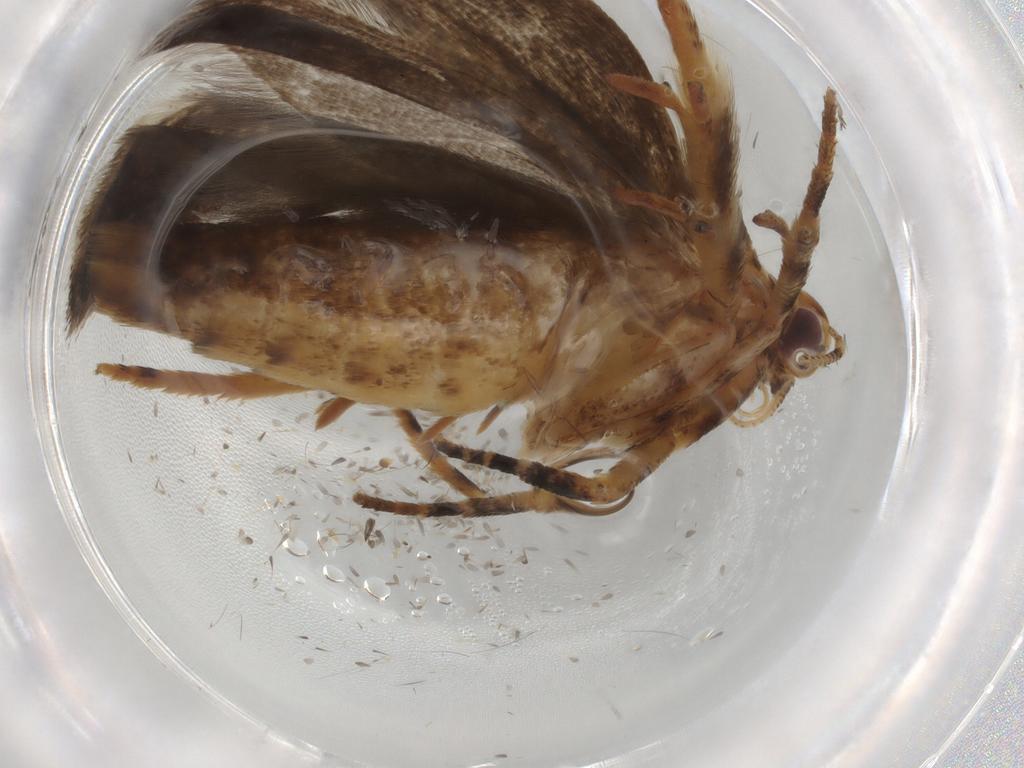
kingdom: Animalia
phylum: Arthropoda
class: Insecta
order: Lepidoptera
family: Gelechiidae
